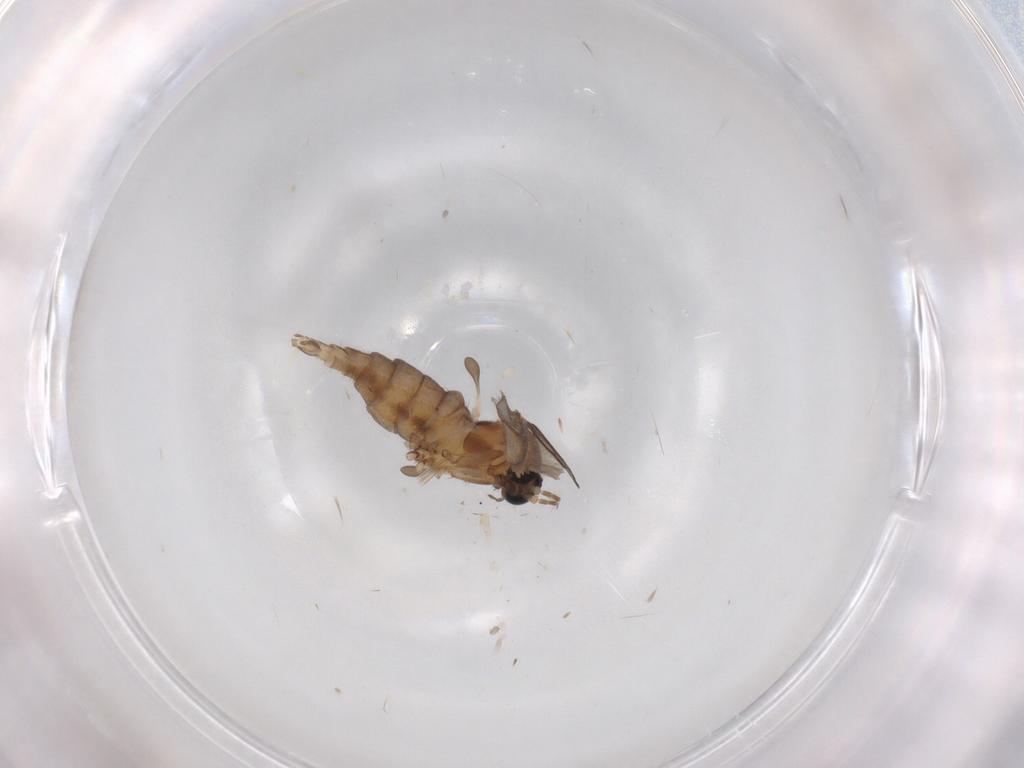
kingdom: Animalia
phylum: Arthropoda
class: Insecta
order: Diptera
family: Sciaridae
